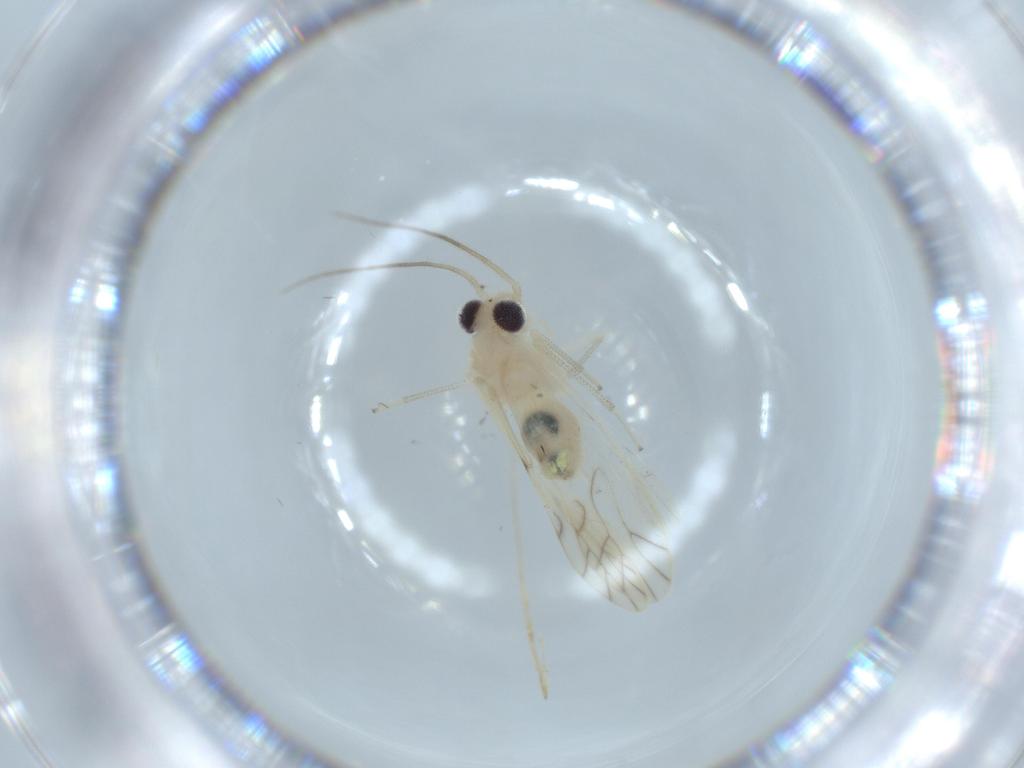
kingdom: Animalia
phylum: Arthropoda
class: Insecta
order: Psocodea
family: Caeciliusidae
